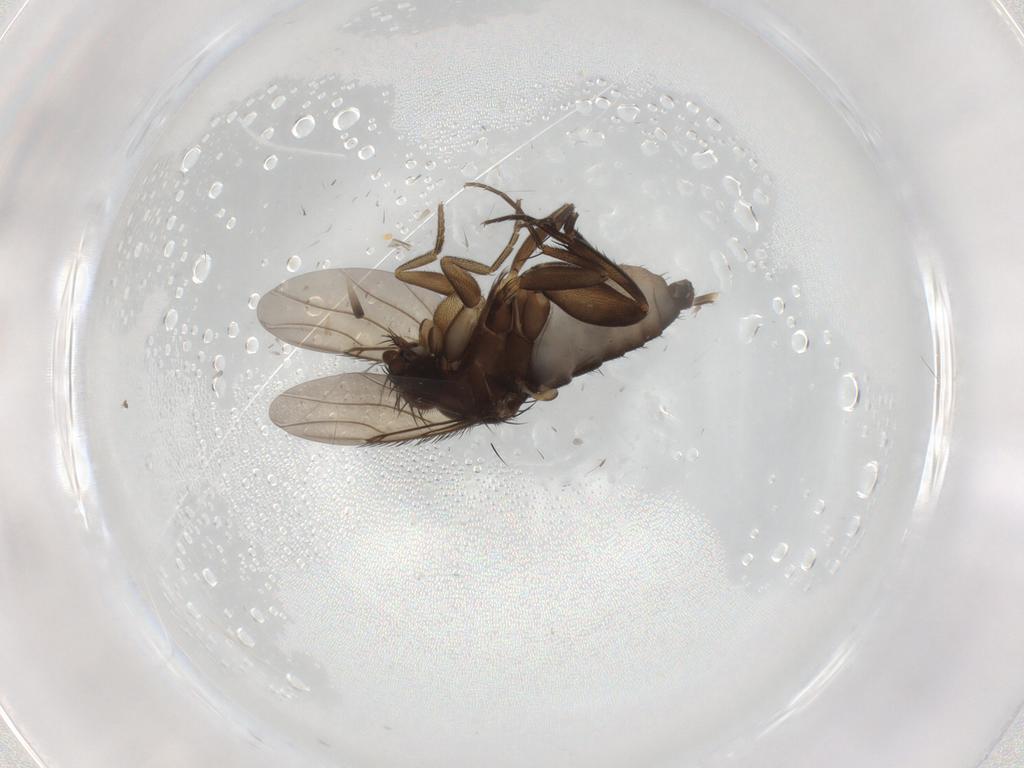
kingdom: Animalia
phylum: Arthropoda
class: Insecta
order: Diptera
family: Phoridae
